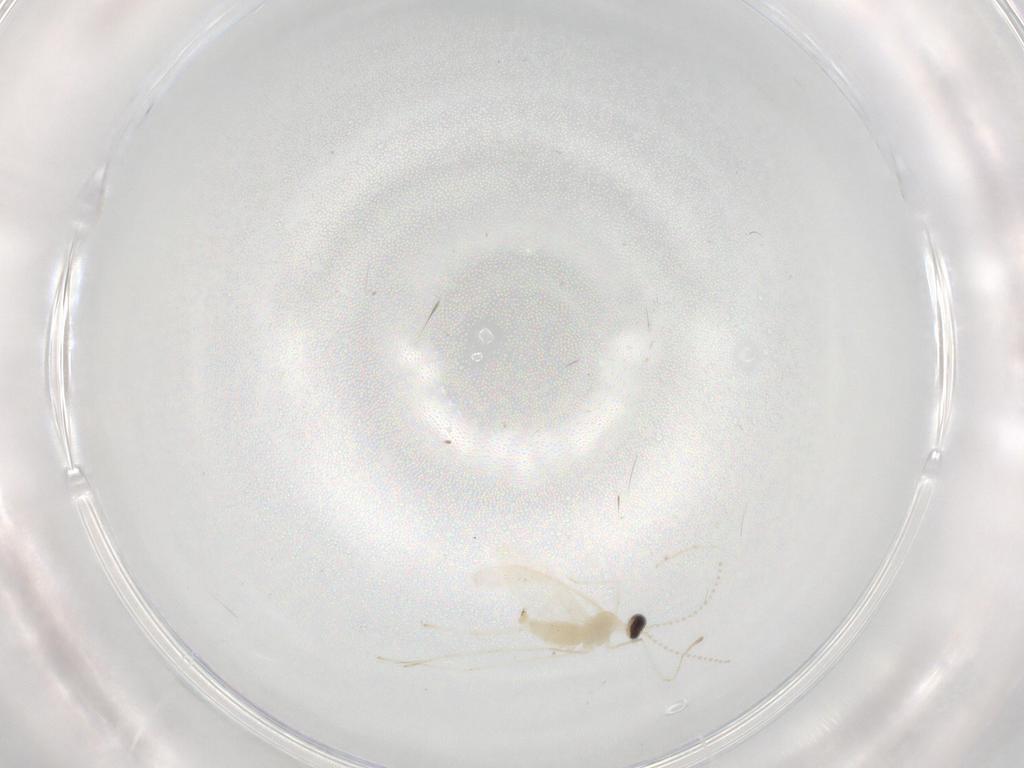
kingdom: Animalia
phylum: Arthropoda
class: Insecta
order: Diptera
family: Cecidomyiidae
